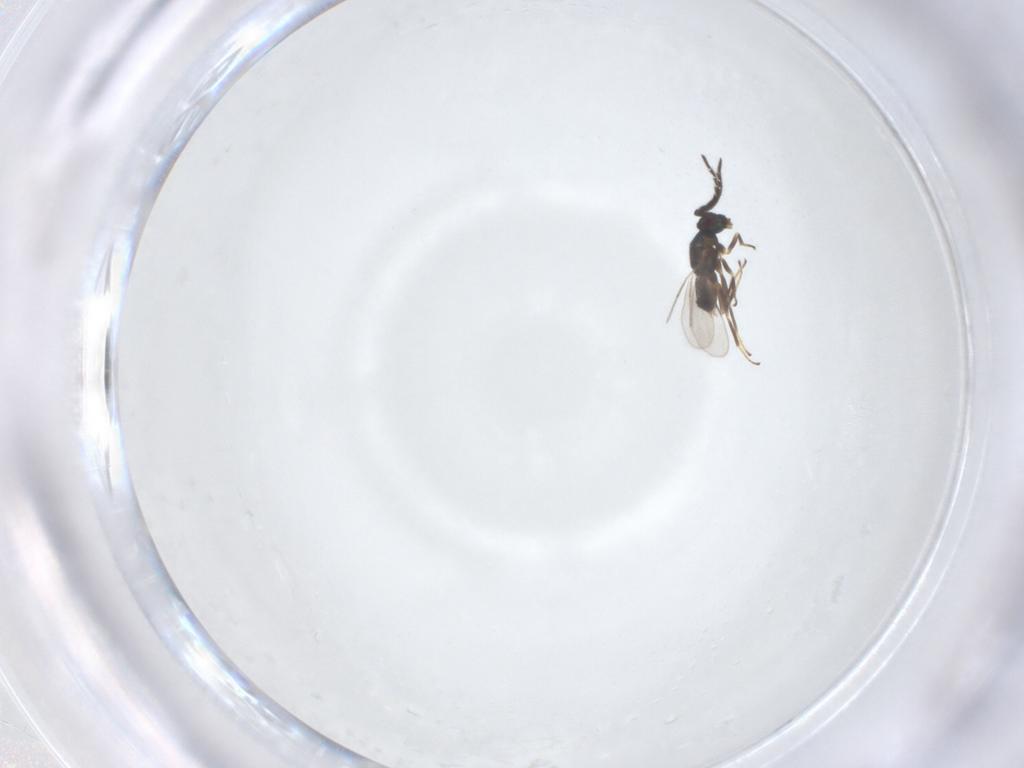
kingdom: Animalia
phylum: Arthropoda
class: Insecta
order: Hymenoptera
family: Encyrtidae
